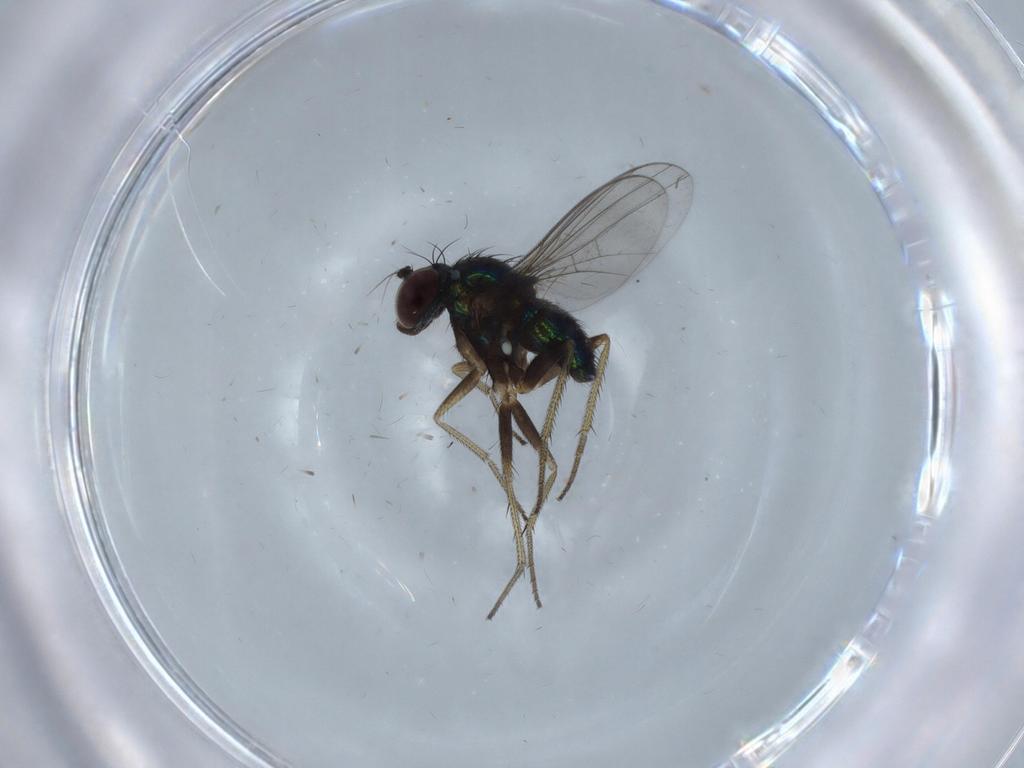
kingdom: Animalia
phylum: Arthropoda
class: Insecta
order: Diptera
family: Dolichopodidae
